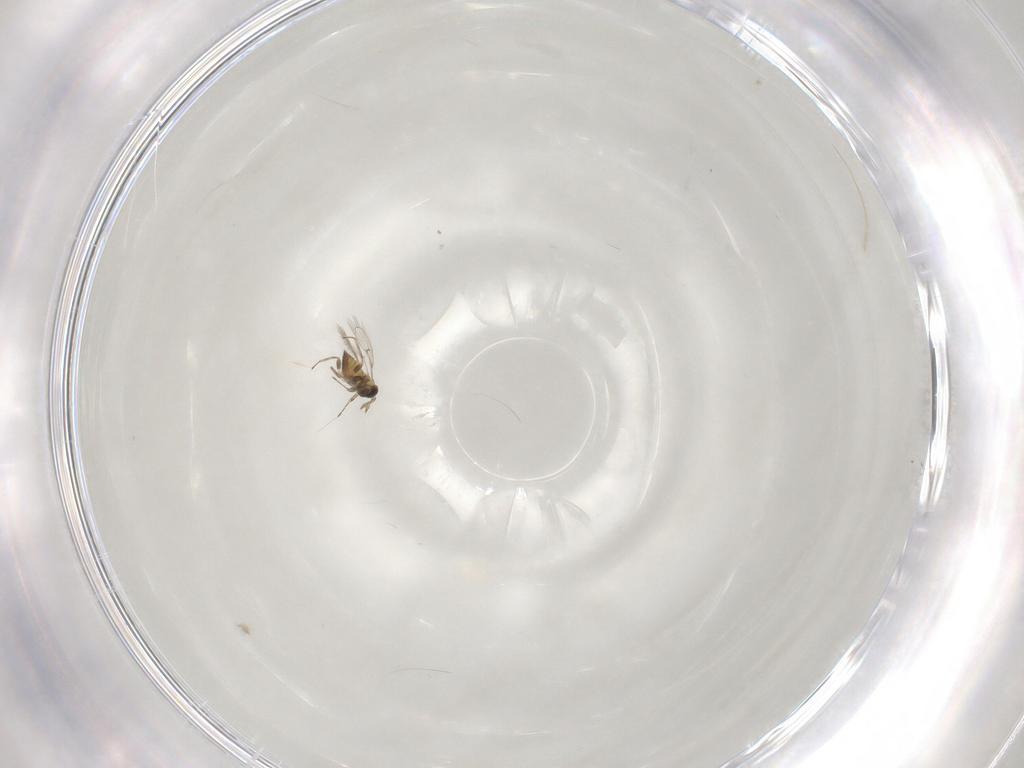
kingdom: Animalia
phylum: Arthropoda
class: Insecta
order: Hymenoptera
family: Trichogrammatidae
